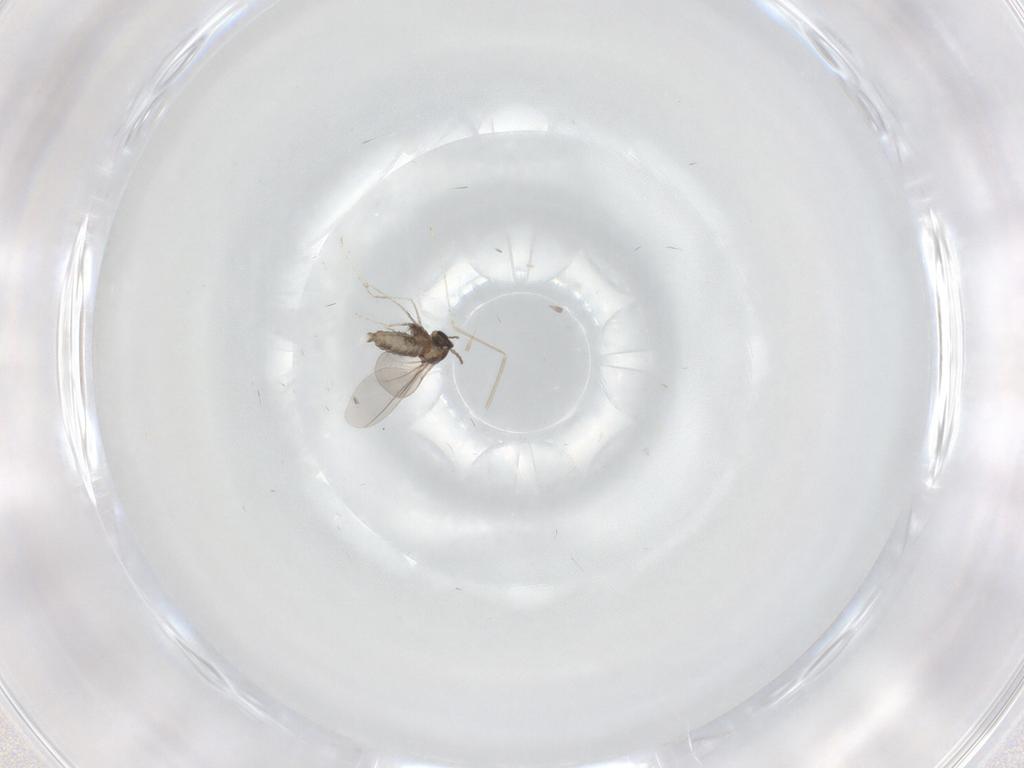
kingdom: Animalia
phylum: Arthropoda
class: Insecta
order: Diptera
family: Cecidomyiidae
